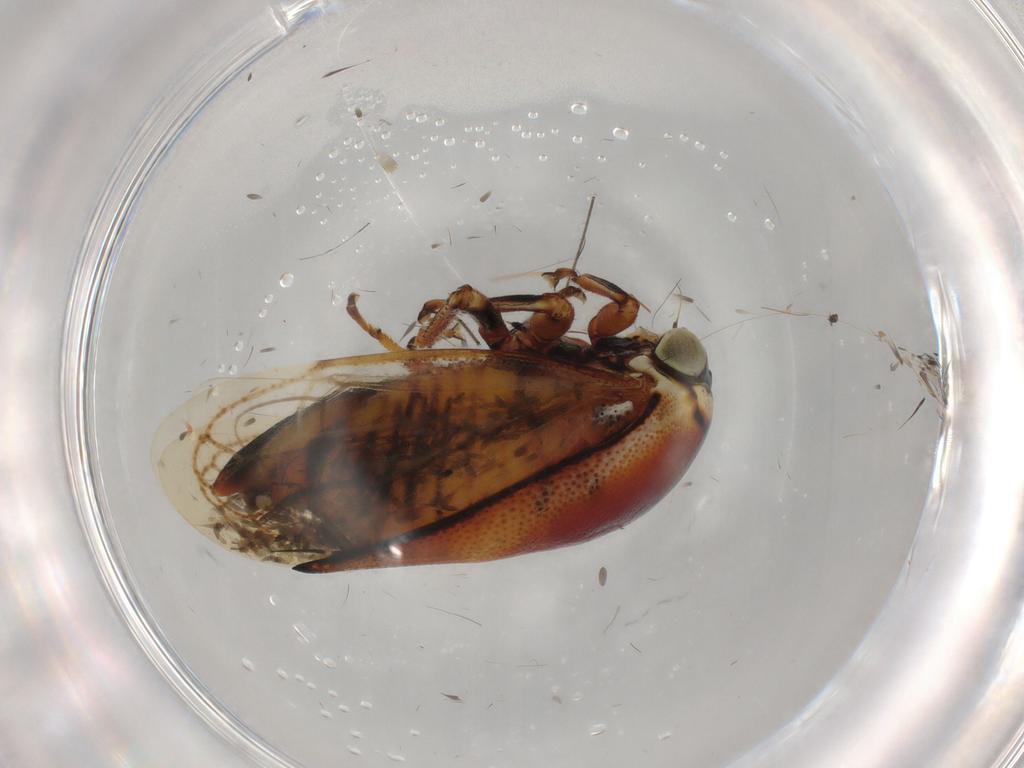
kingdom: Animalia
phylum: Arthropoda
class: Insecta
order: Hemiptera
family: Membracidae
